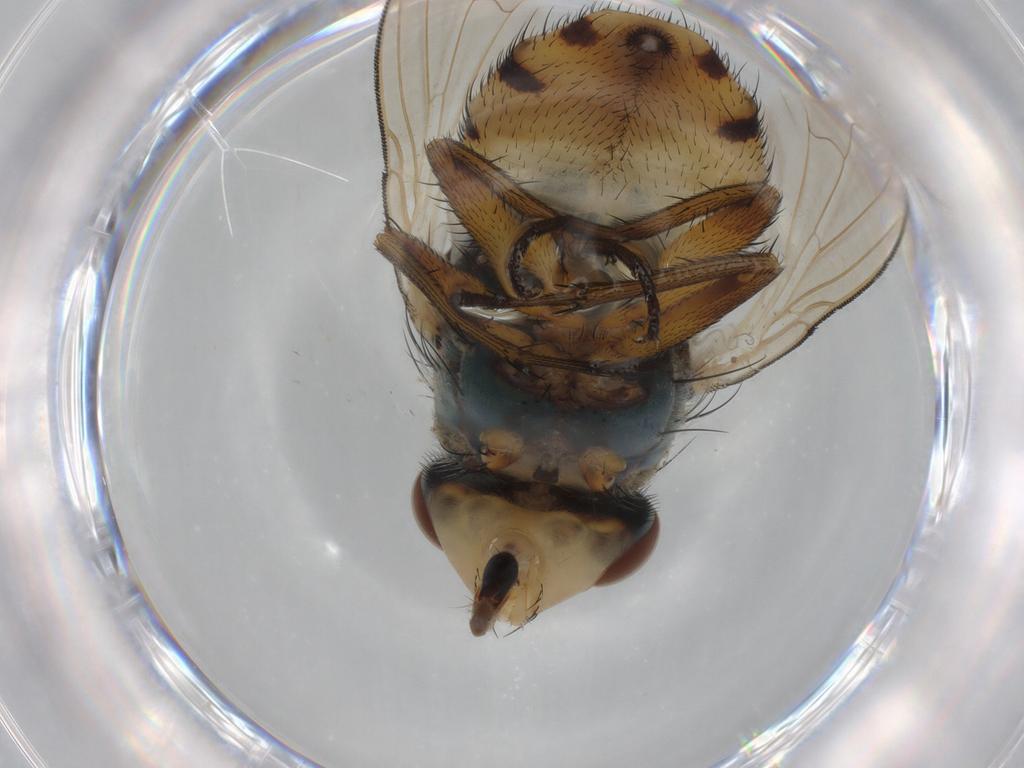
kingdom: Animalia
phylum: Arthropoda
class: Insecta
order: Diptera
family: Calliphoridae
